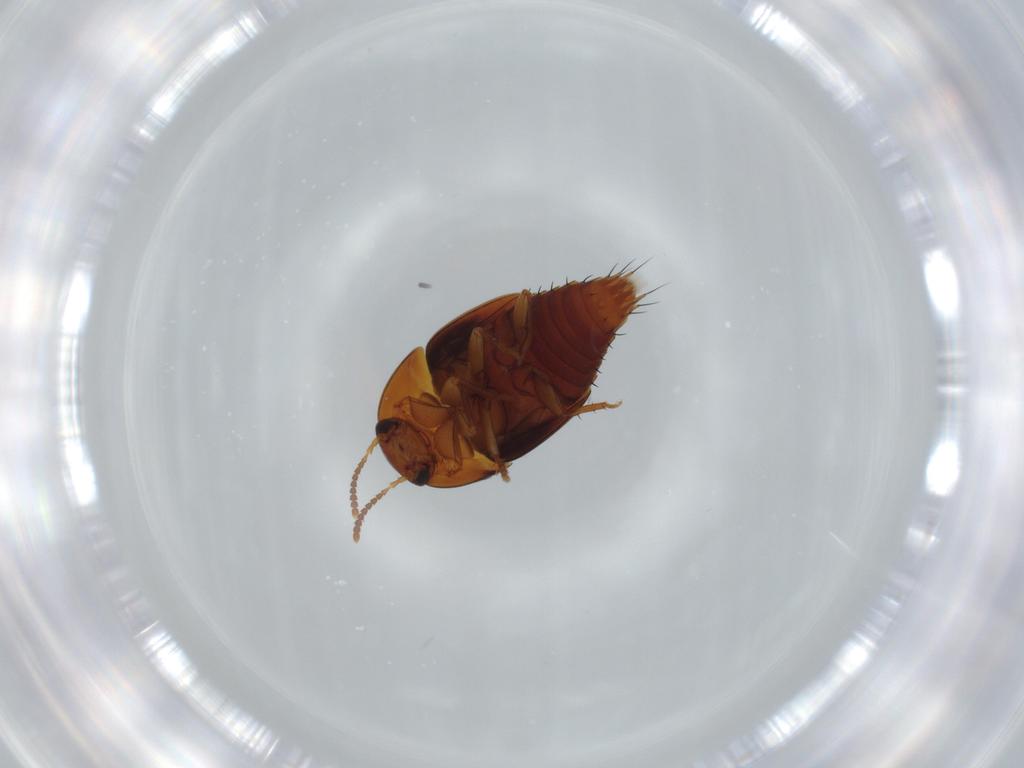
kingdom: Animalia
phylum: Arthropoda
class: Insecta
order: Coleoptera
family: Staphylinidae
